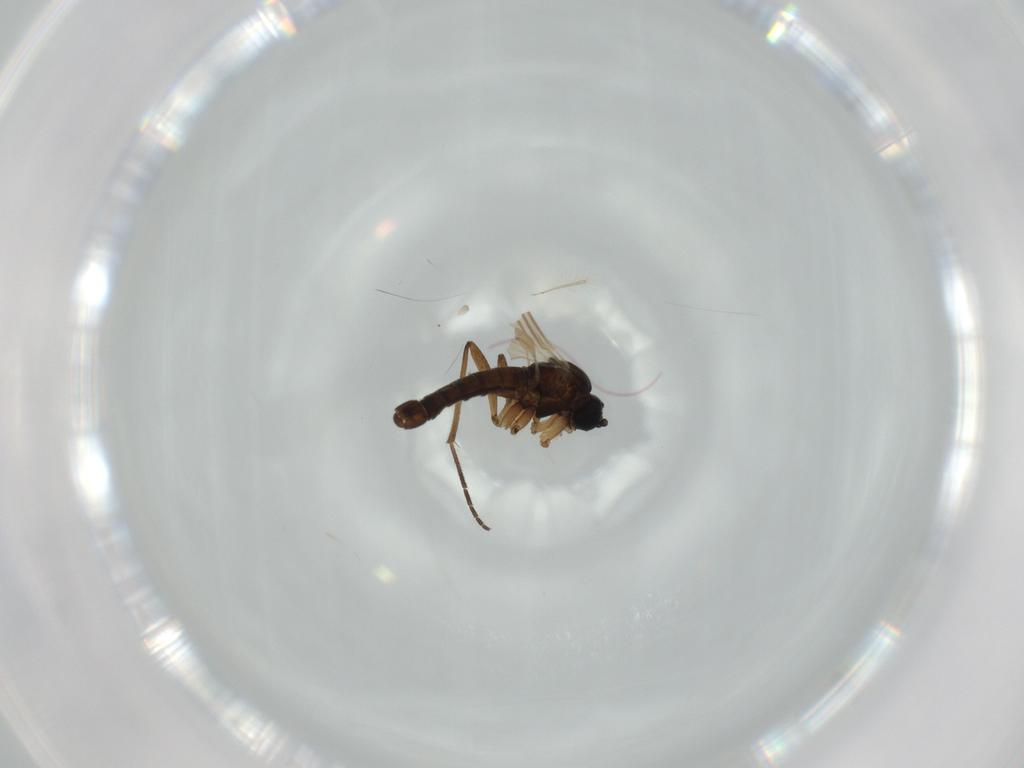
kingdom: Animalia
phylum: Arthropoda
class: Insecta
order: Diptera
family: Sciaridae
